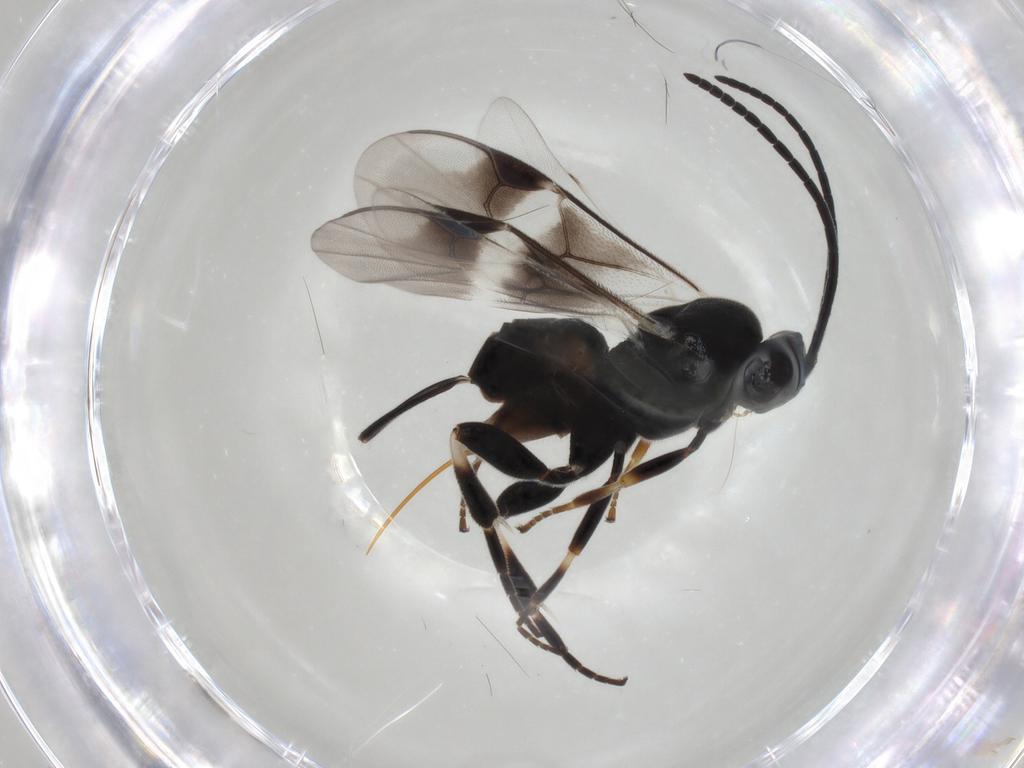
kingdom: Animalia
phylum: Arthropoda
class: Insecta
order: Hymenoptera
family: Braconidae
